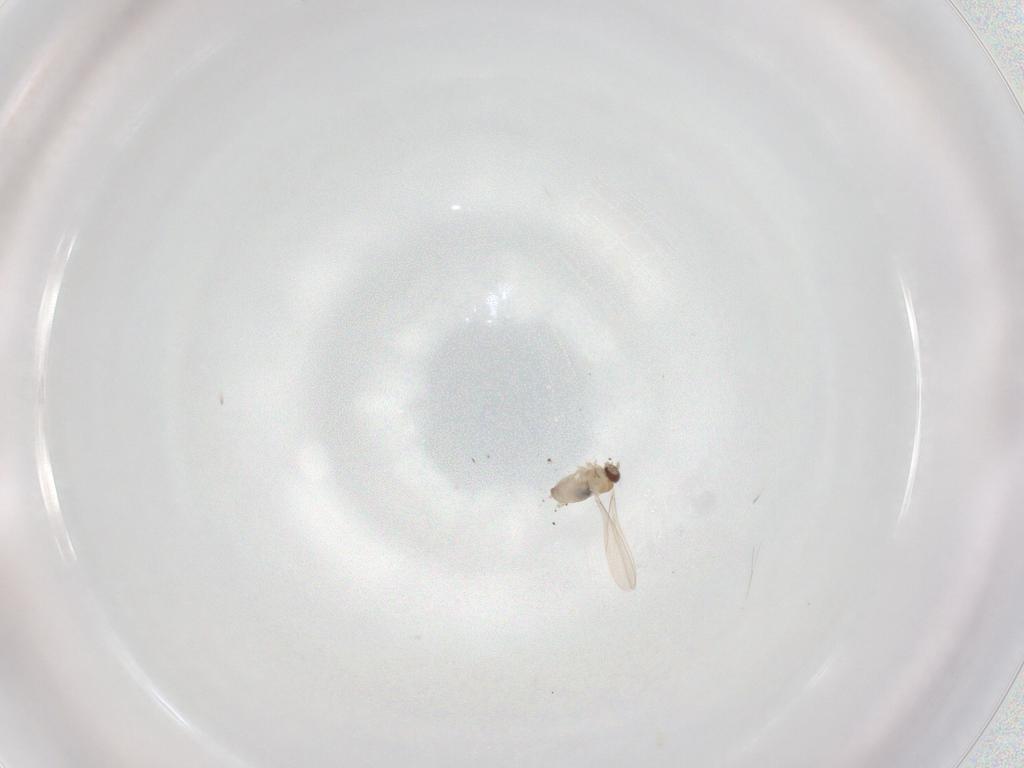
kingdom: Animalia
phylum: Arthropoda
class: Insecta
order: Diptera
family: Cecidomyiidae
